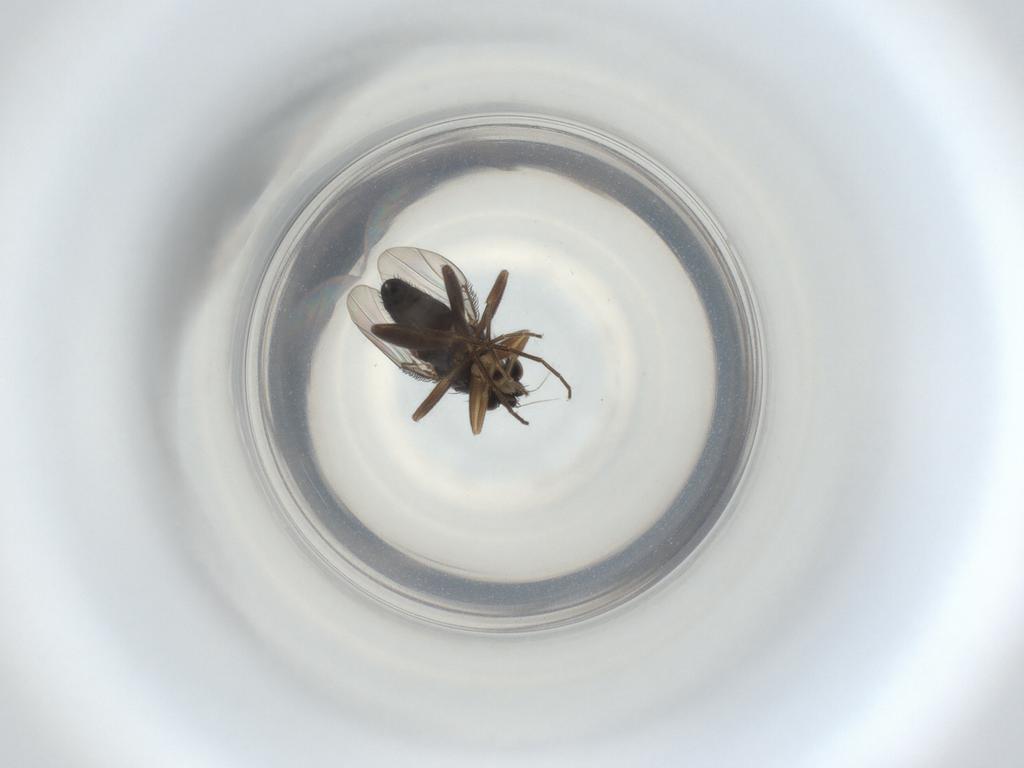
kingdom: Animalia
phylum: Arthropoda
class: Insecta
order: Diptera
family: Phoridae
